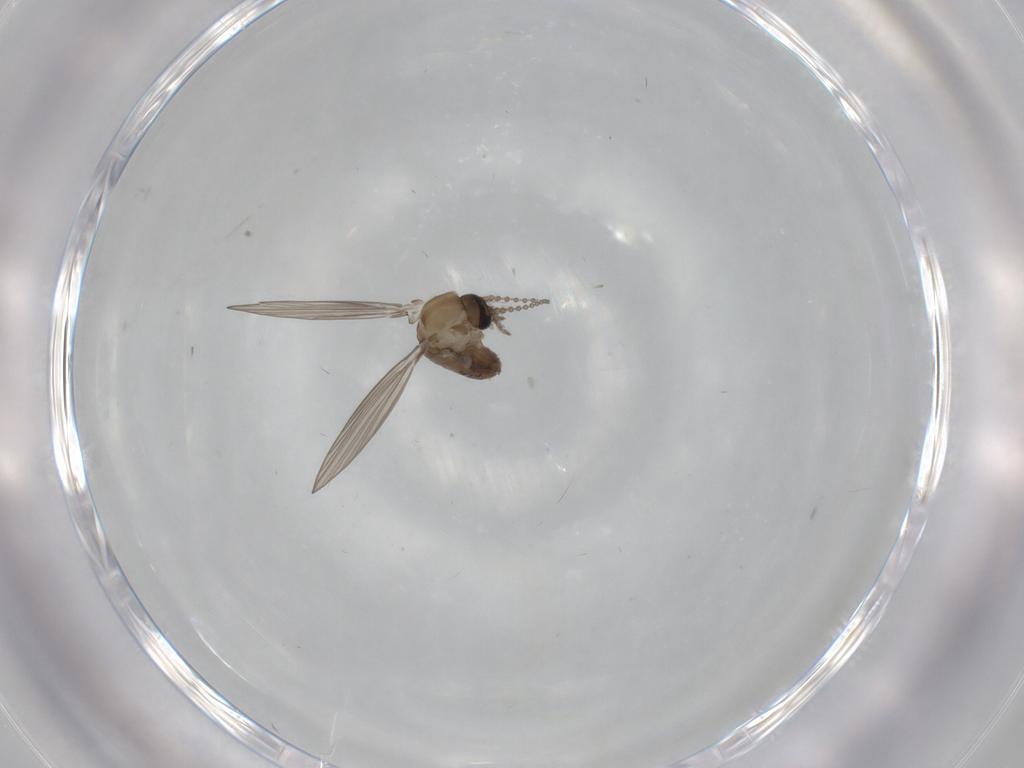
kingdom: Animalia
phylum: Arthropoda
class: Insecta
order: Diptera
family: Psychodidae
